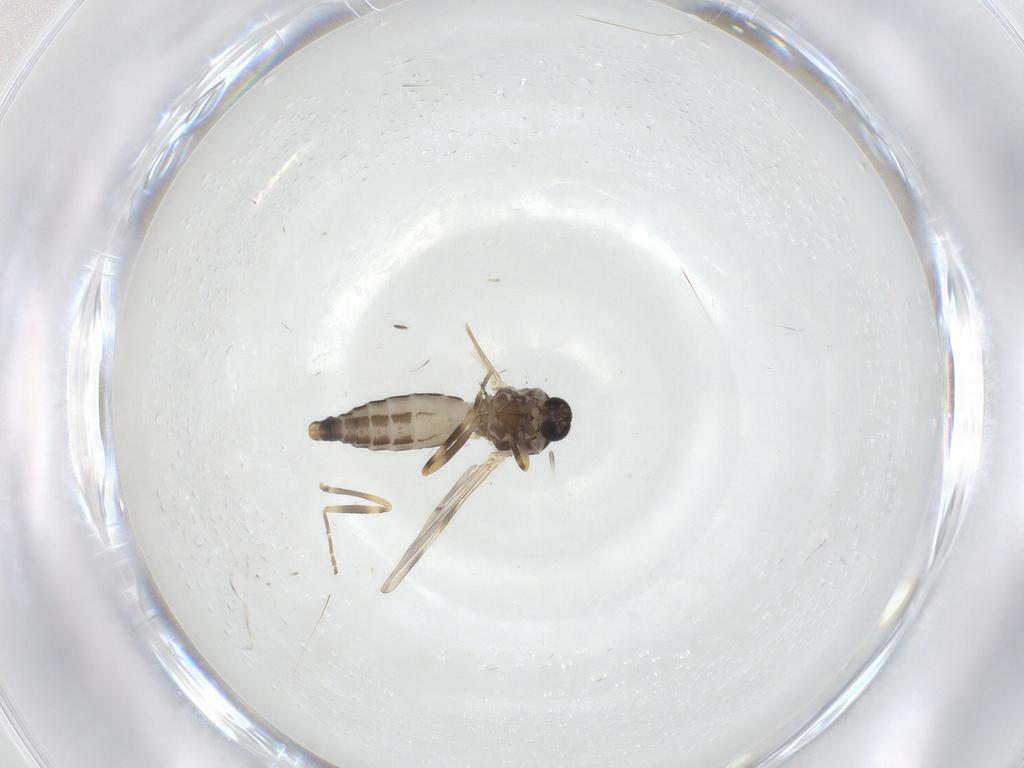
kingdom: Animalia
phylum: Arthropoda
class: Insecta
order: Diptera
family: Ceratopogonidae
